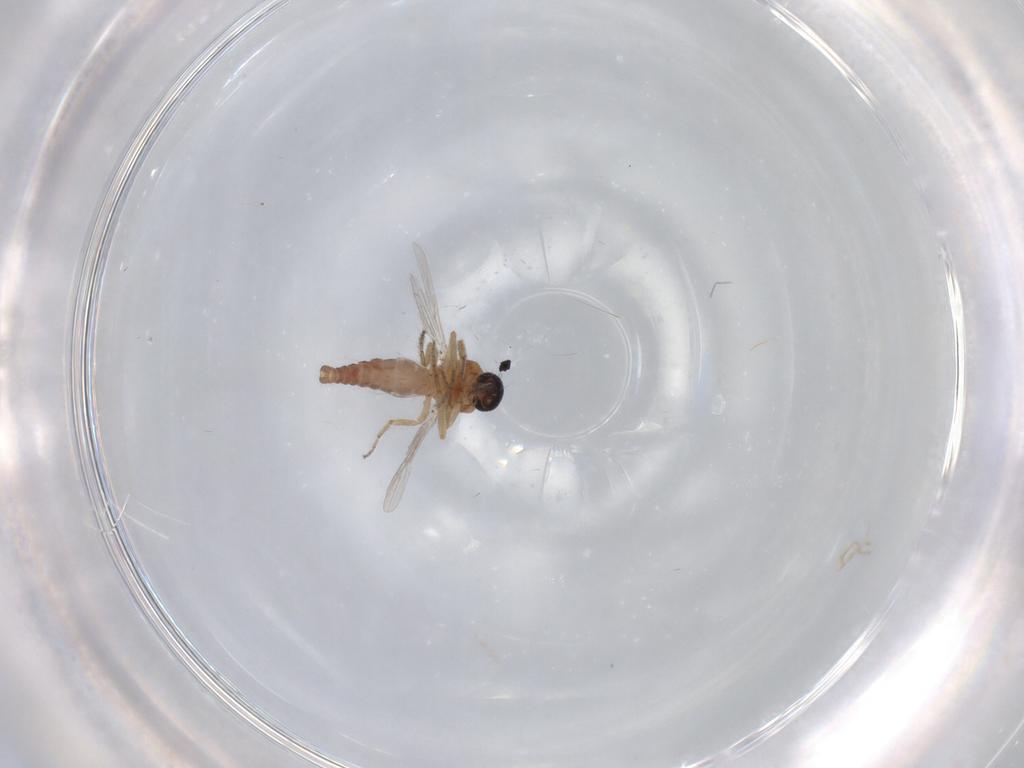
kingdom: Animalia
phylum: Arthropoda
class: Insecta
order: Diptera
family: Ceratopogonidae
